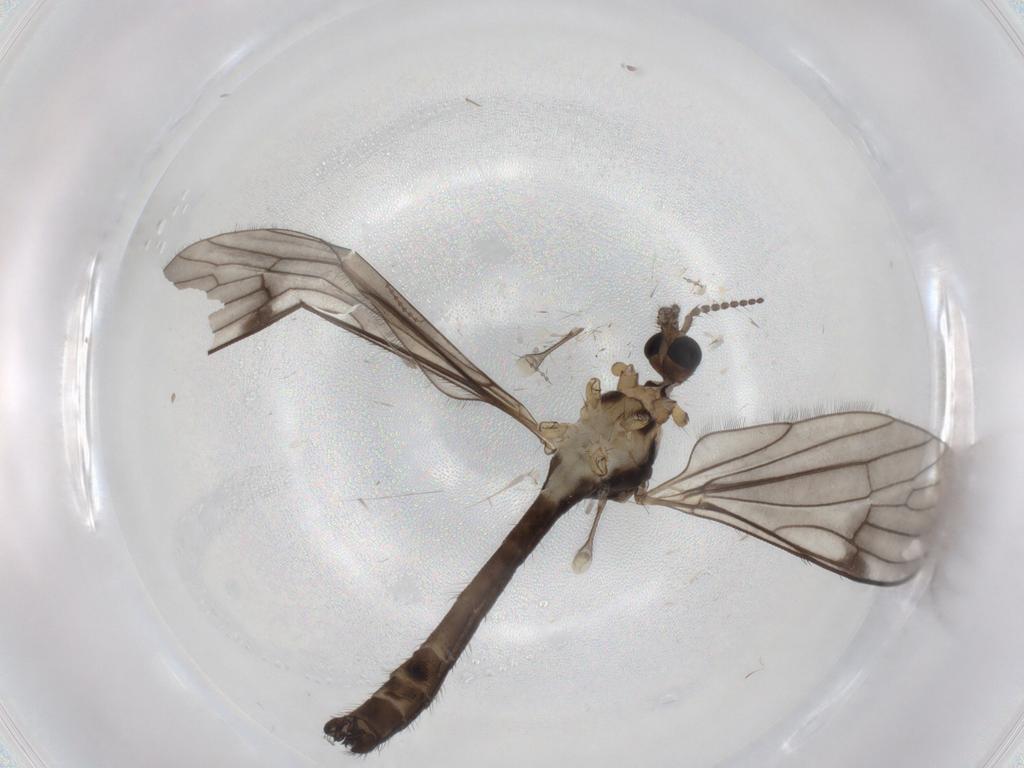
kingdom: Animalia
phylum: Arthropoda
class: Insecta
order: Diptera
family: Limoniidae
